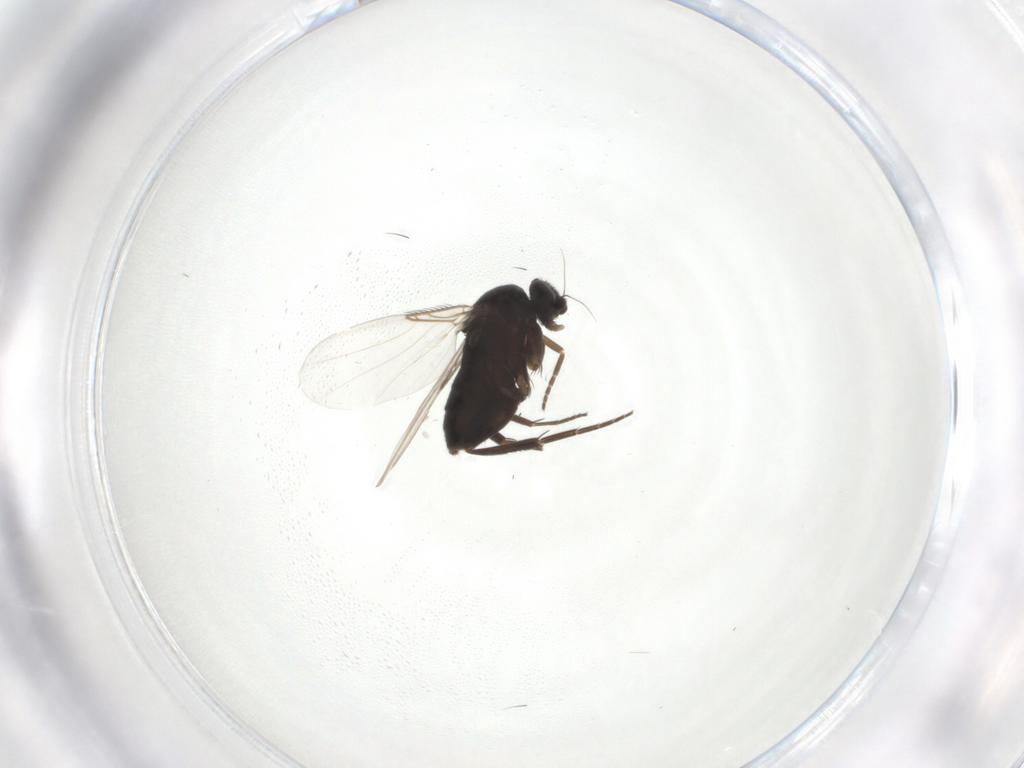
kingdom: Animalia
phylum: Arthropoda
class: Insecta
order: Diptera
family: Phoridae
